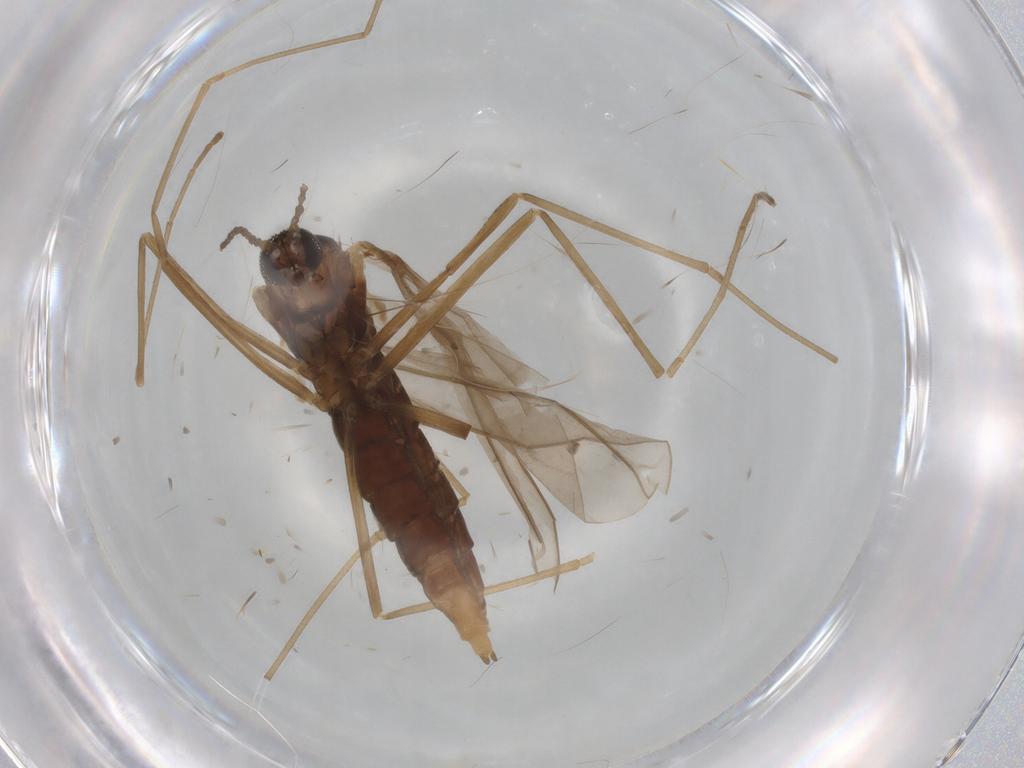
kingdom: Animalia
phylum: Arthropoda
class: Insecta
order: Diptera
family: Cecidomyiidae
